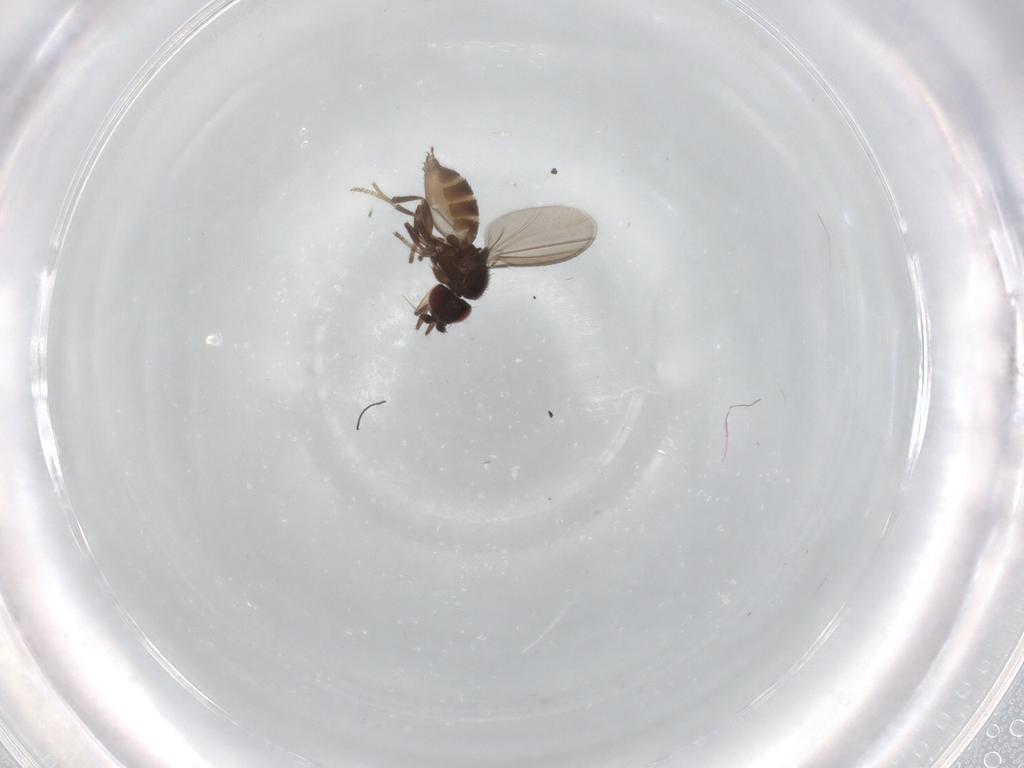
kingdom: Animalia
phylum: Arthropoda
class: Insecta
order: Diptera
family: Milichiidae
